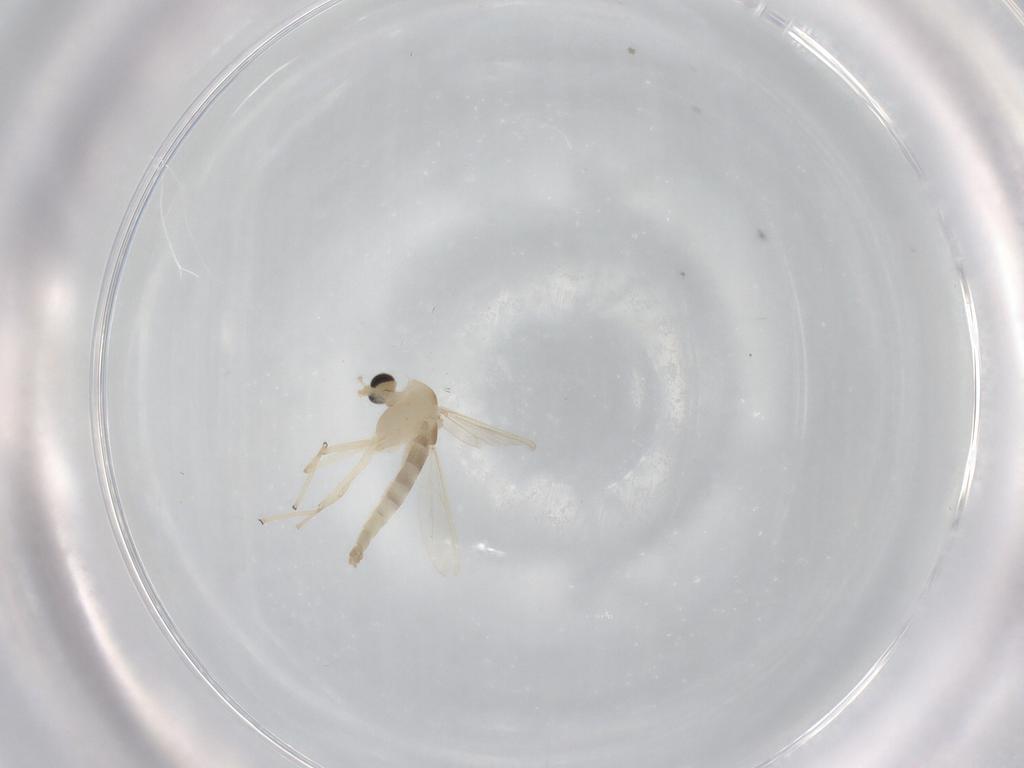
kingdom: Animalia
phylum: Arthropoda
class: Insecta
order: Diptera
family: Chironomidae
